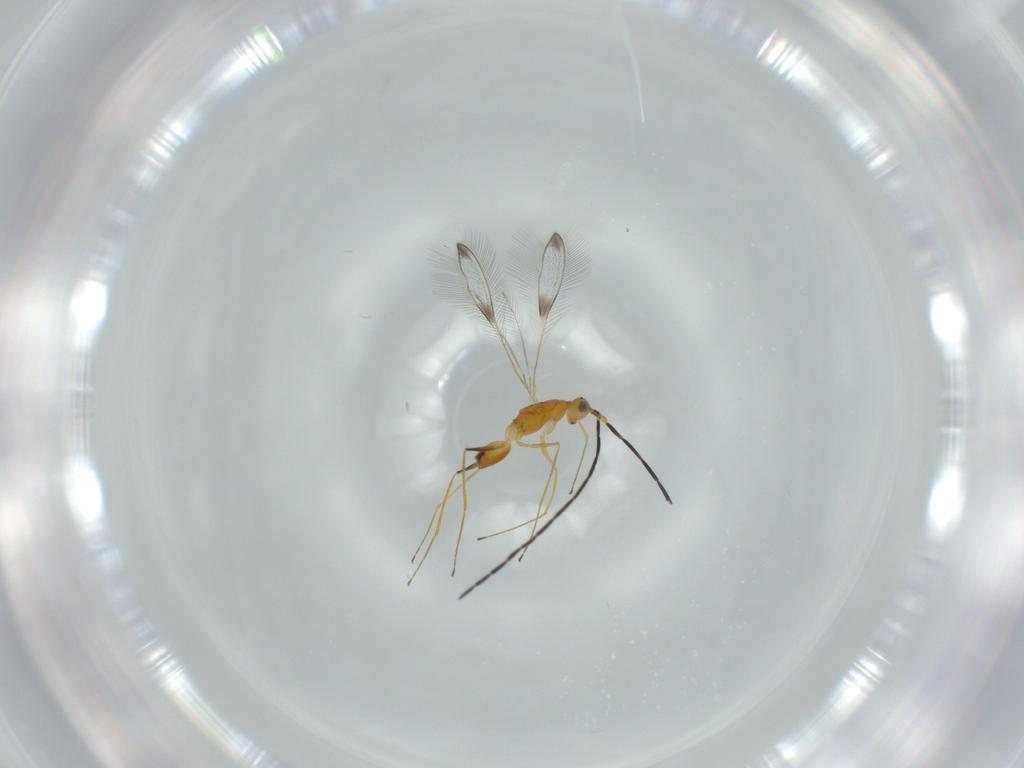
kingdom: Animalia
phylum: Arthropoda
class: Insecta
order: Hymenoptera
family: Mymaridae
